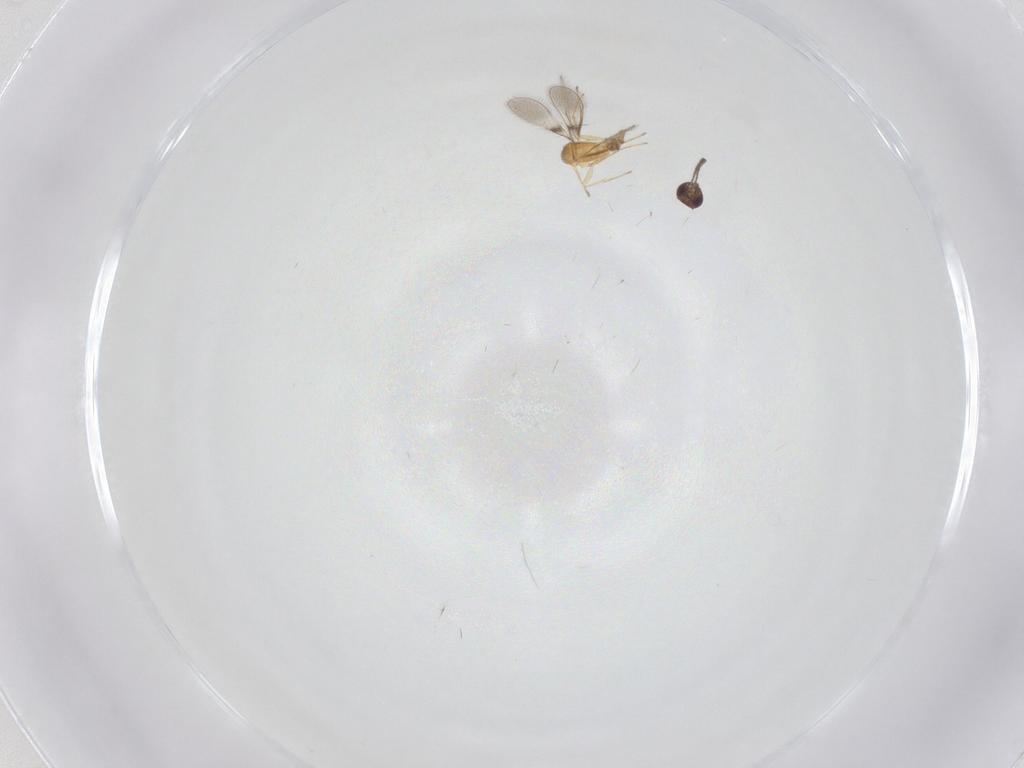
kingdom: Animalia
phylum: Arthropoda
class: Insecta
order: Hymenoptera
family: Mymaridae
